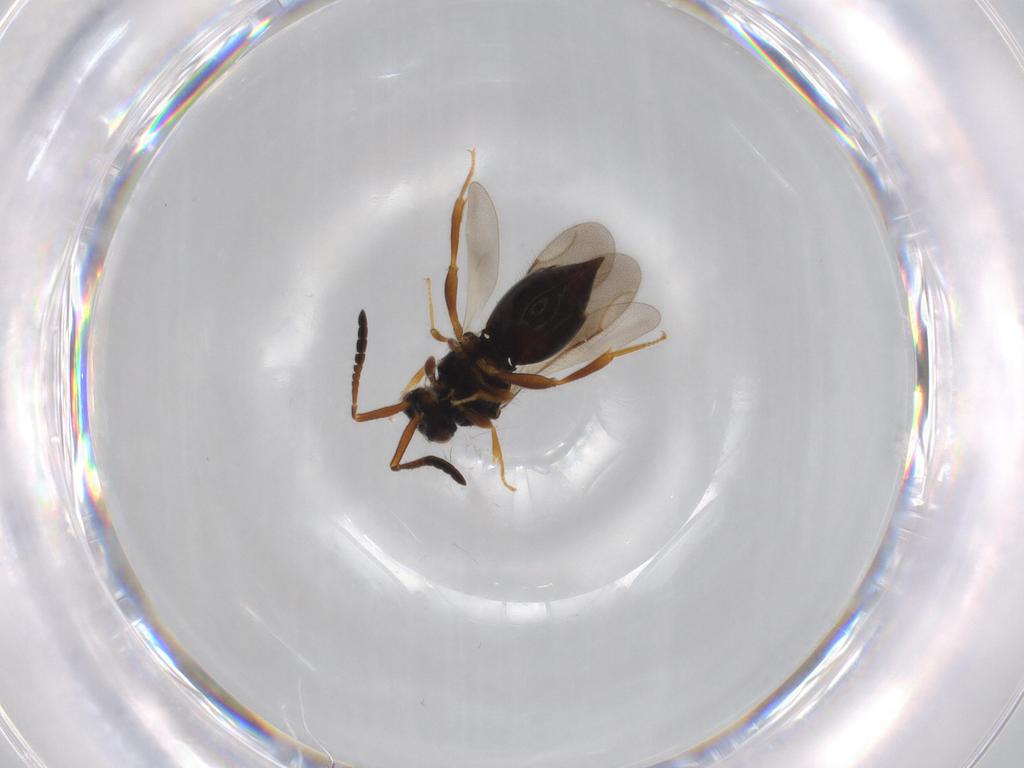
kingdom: Animalia
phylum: Arthropoda
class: Insecta
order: Hymenoptera
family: Ceraphronidae
